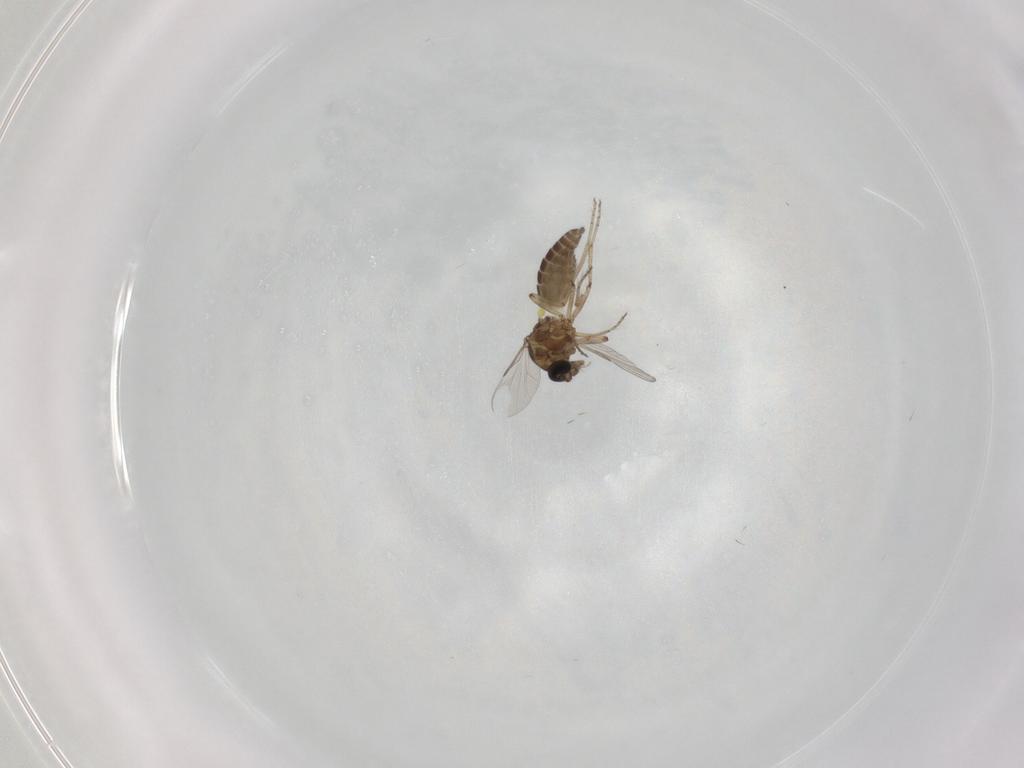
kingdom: Animalia
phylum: Arthropoda
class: Insecta
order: Diptera
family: Ceratopogonidae
